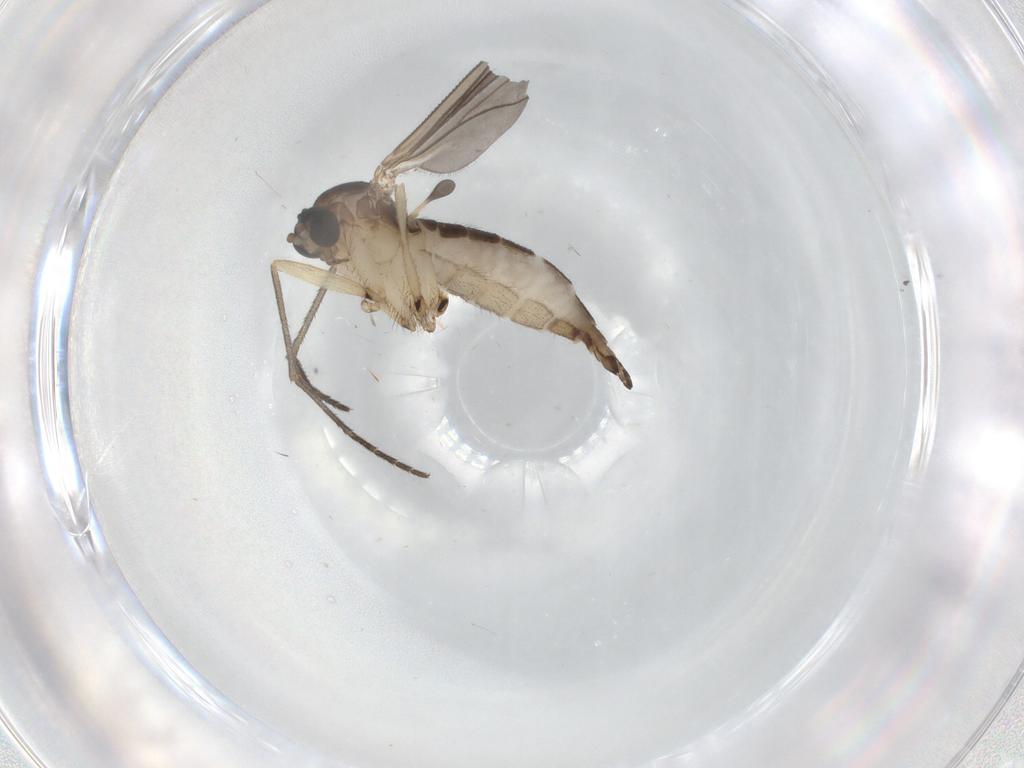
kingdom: Animalia
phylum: Arthropoda
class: Insecta
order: Diptera
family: Sciaridae
